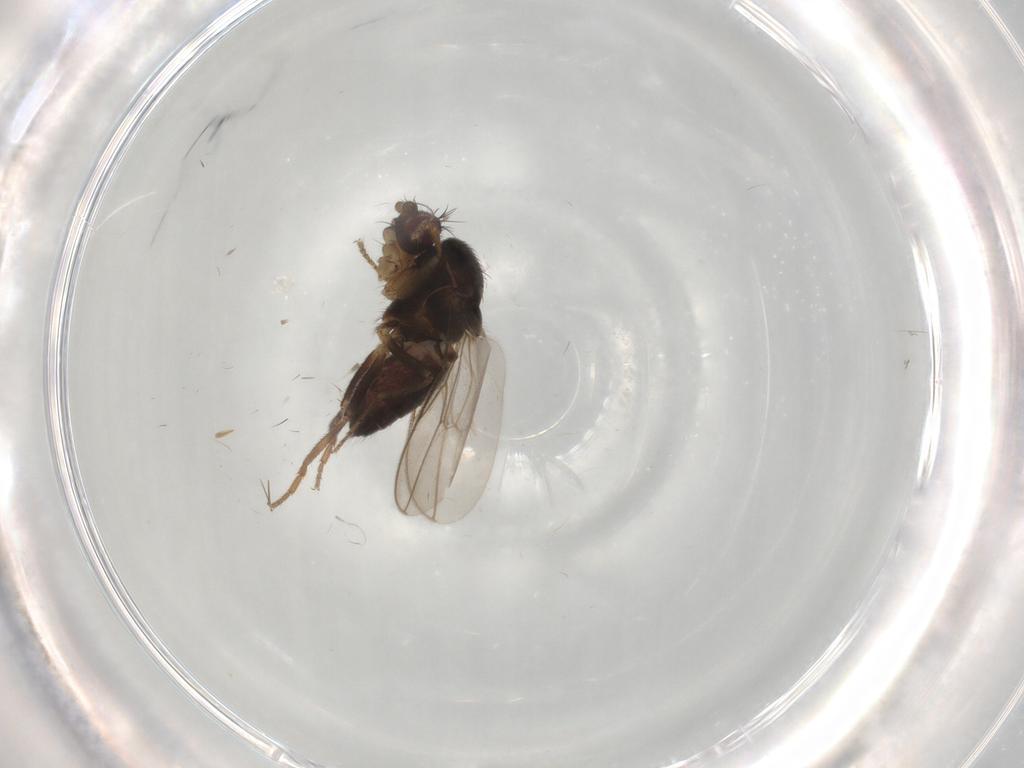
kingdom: Animalia
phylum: Arthropoda
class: Insecta
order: Diptera
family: Sphaeroceridae
